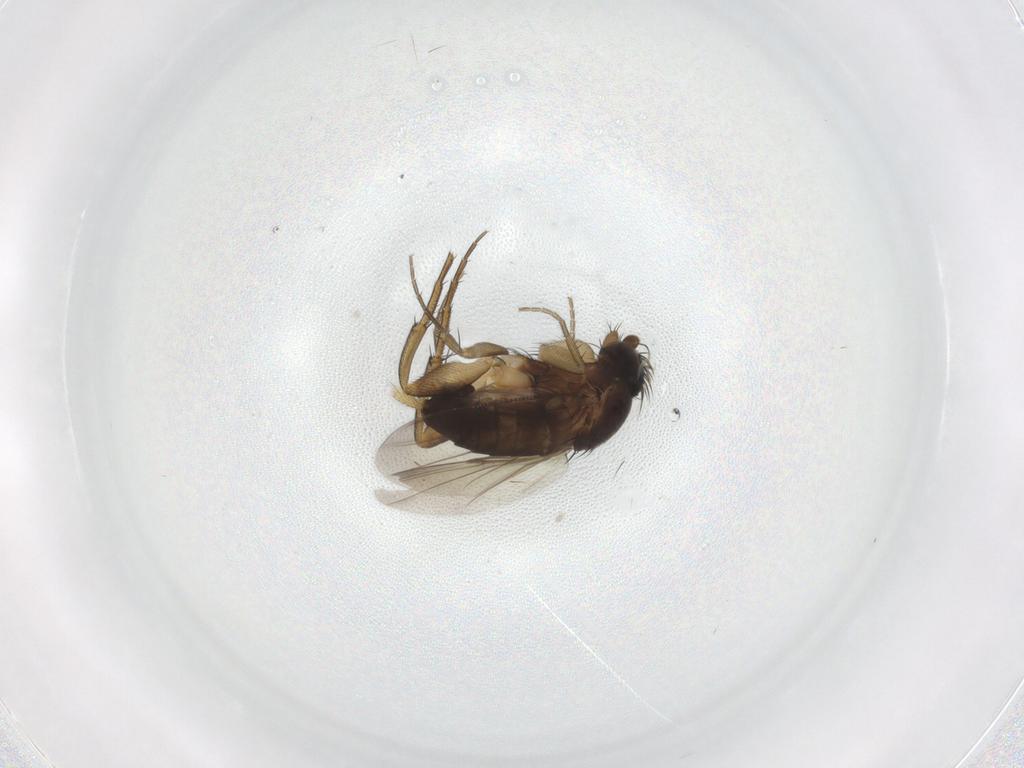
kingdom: Animalia
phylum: Arthropoda
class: Insecta
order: Diptera
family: Phoridae
